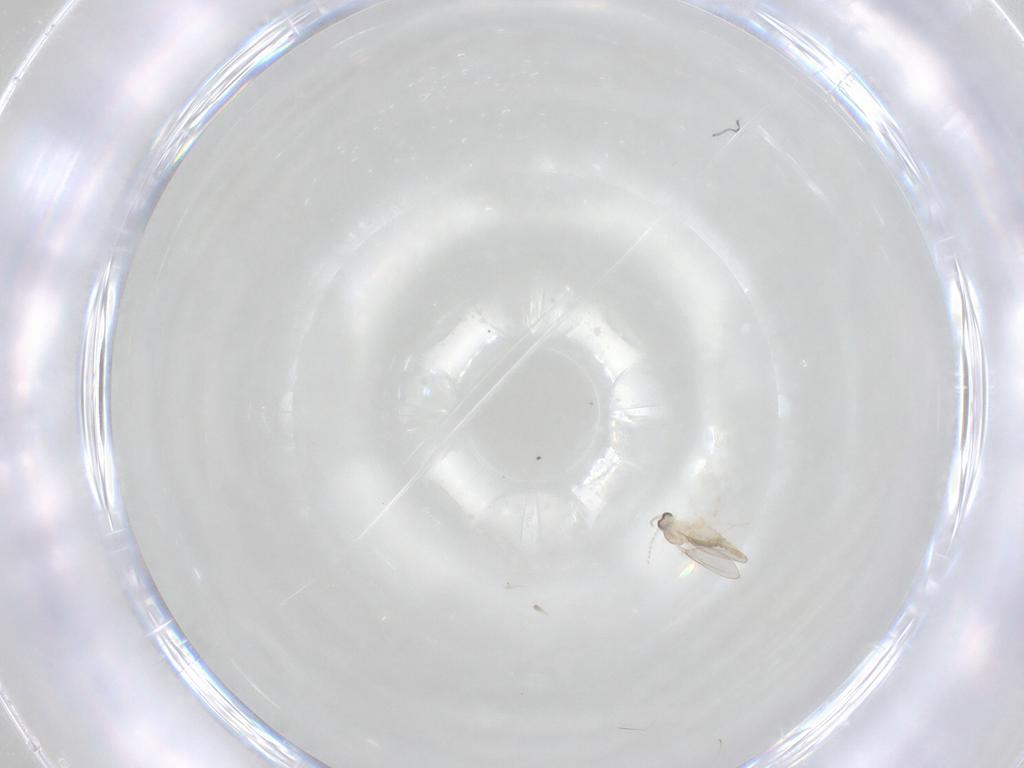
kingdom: Animalia
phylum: Arthropoda
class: Insecta
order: Diptera
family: Cecidomyiidae
